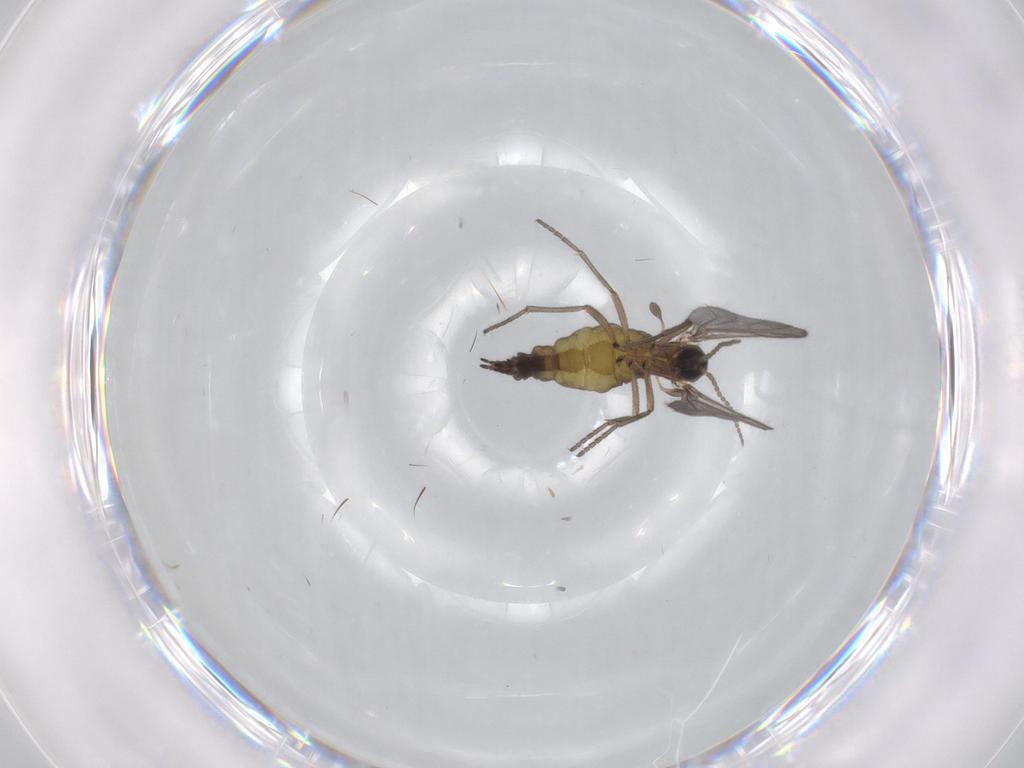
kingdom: Animalia
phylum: Arthropoda
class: Insecta
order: Diptera
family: Sciaridae
